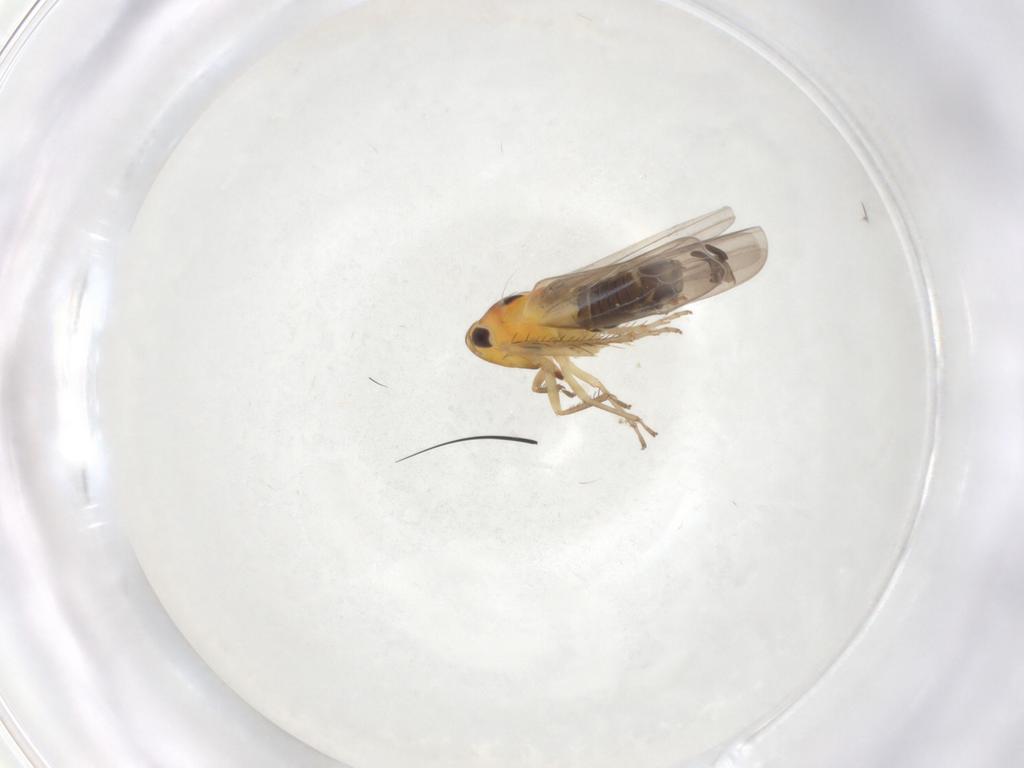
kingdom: Animalia
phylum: Arthropoda
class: Insecta
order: Hemiptera
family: Cicadellidae
